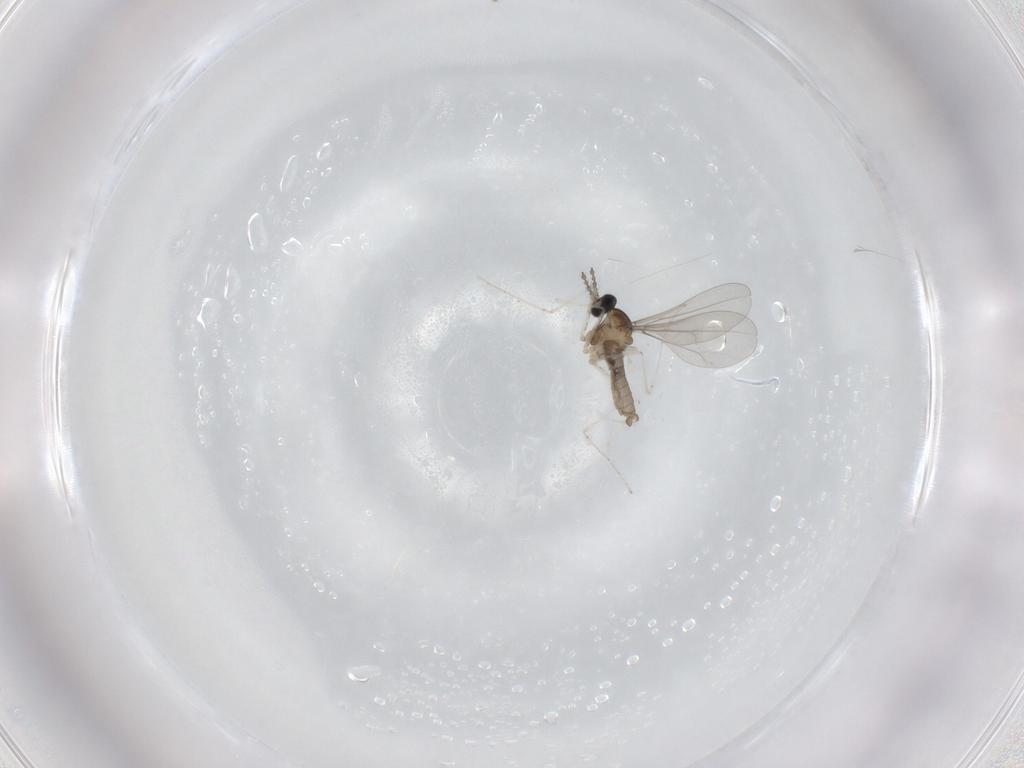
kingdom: Animalia
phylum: Arthropoda
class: Insecta
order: Diptera
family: Cecidomyiidae
